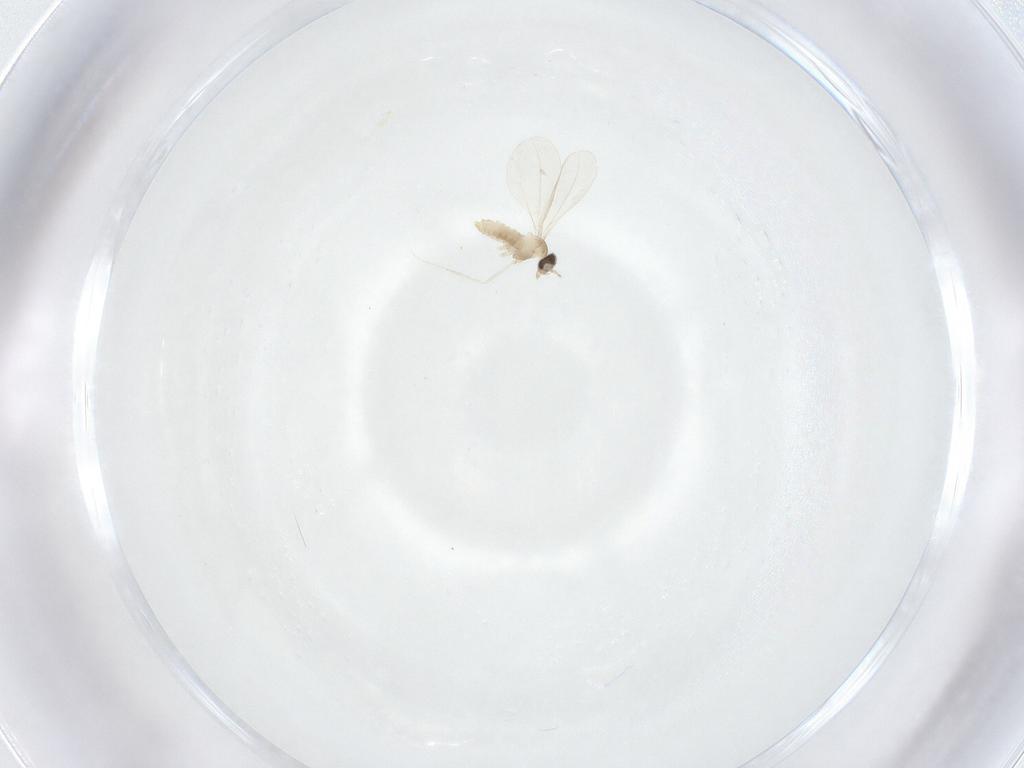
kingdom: Animalia
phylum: Arthropoda
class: Insecta
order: Diptera
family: Cecidomyiidae
